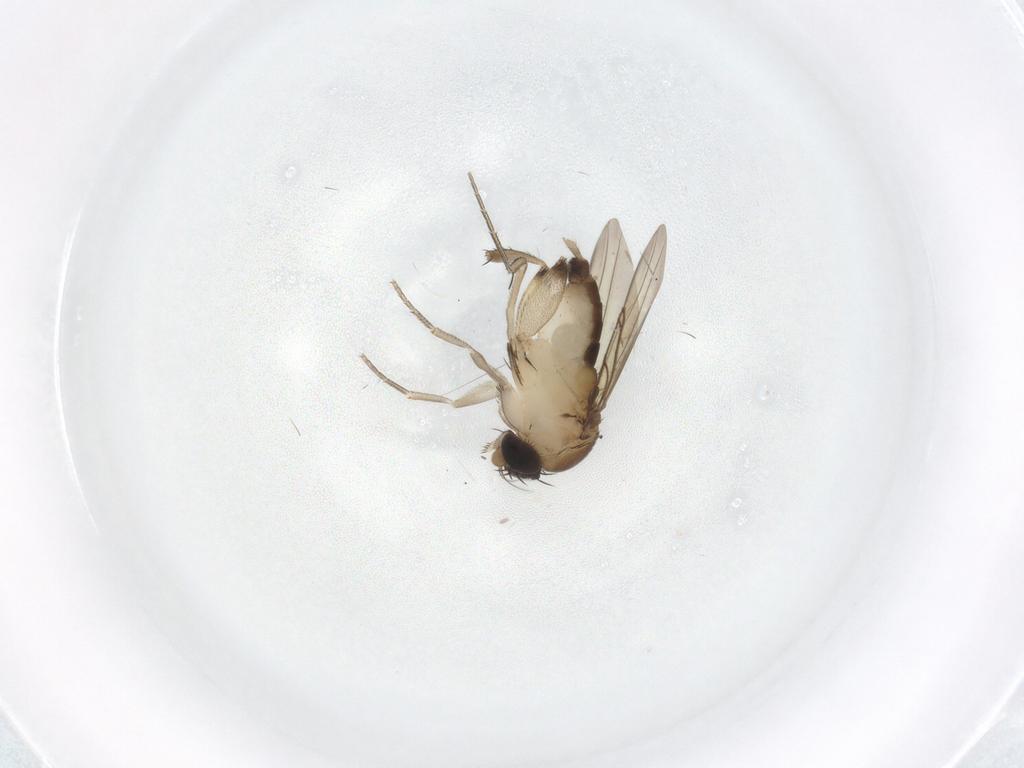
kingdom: Animalia
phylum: Arthropoda
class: Insecta
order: Diptera
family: Phoridae
